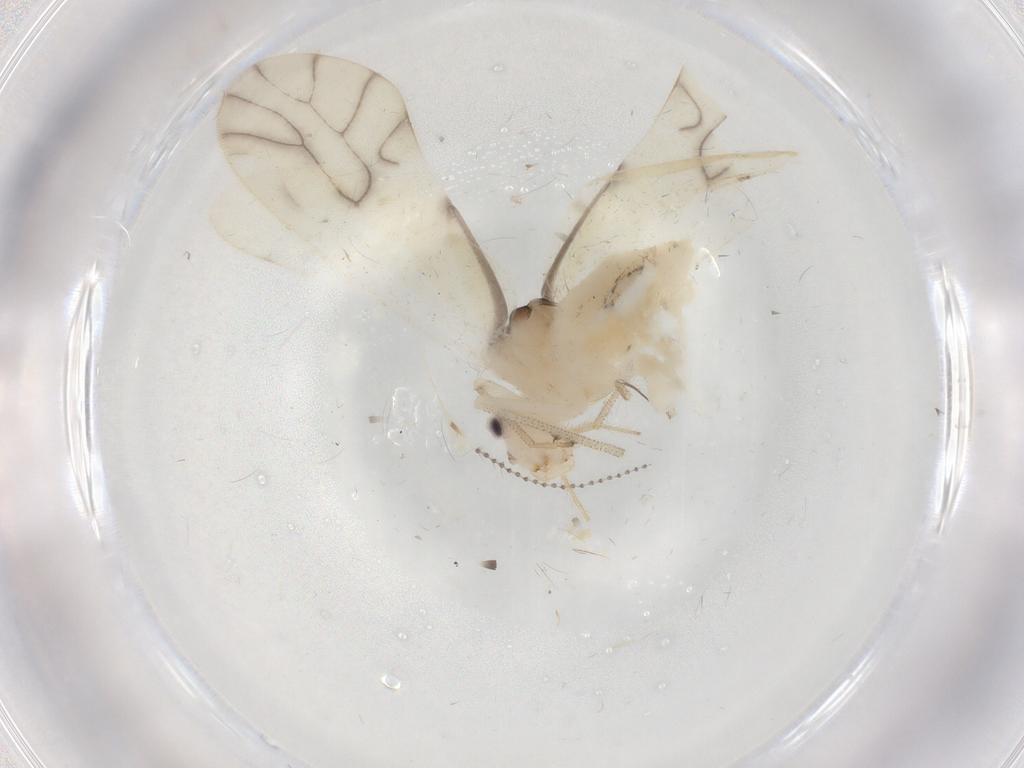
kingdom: Animalia
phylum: Arthropoda
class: Insecta
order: Psocodea
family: Caeciliusidae
